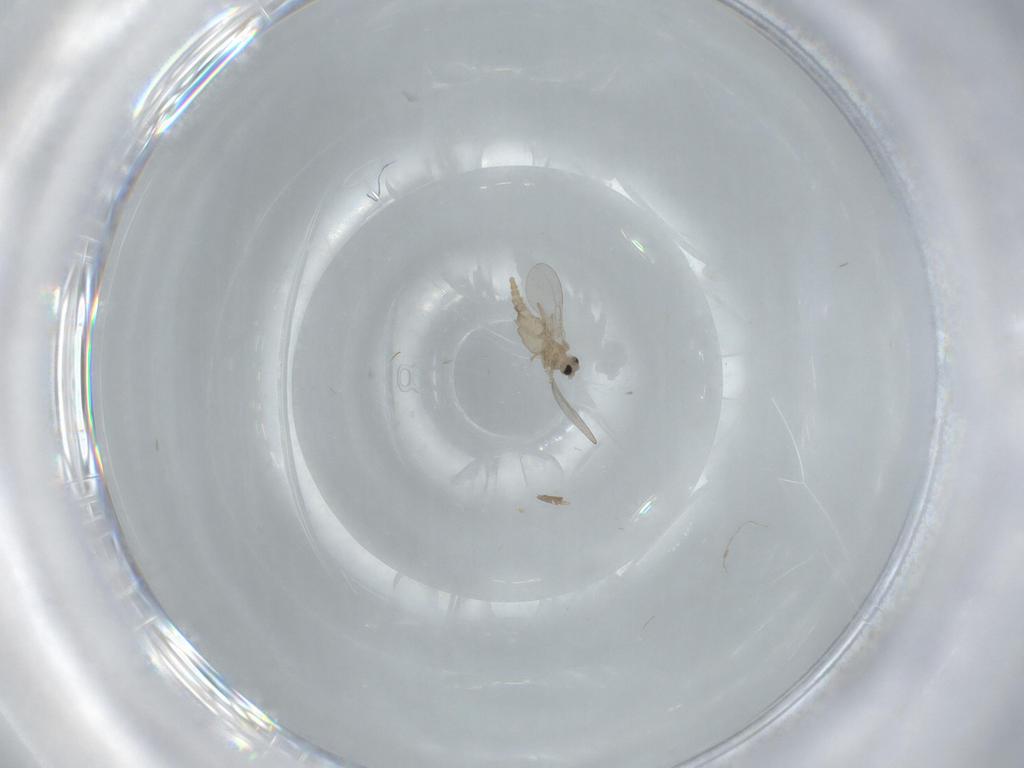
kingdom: Animalia
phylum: Arthropoda
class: Insecta
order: Diptera
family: Cecidomyiidae
